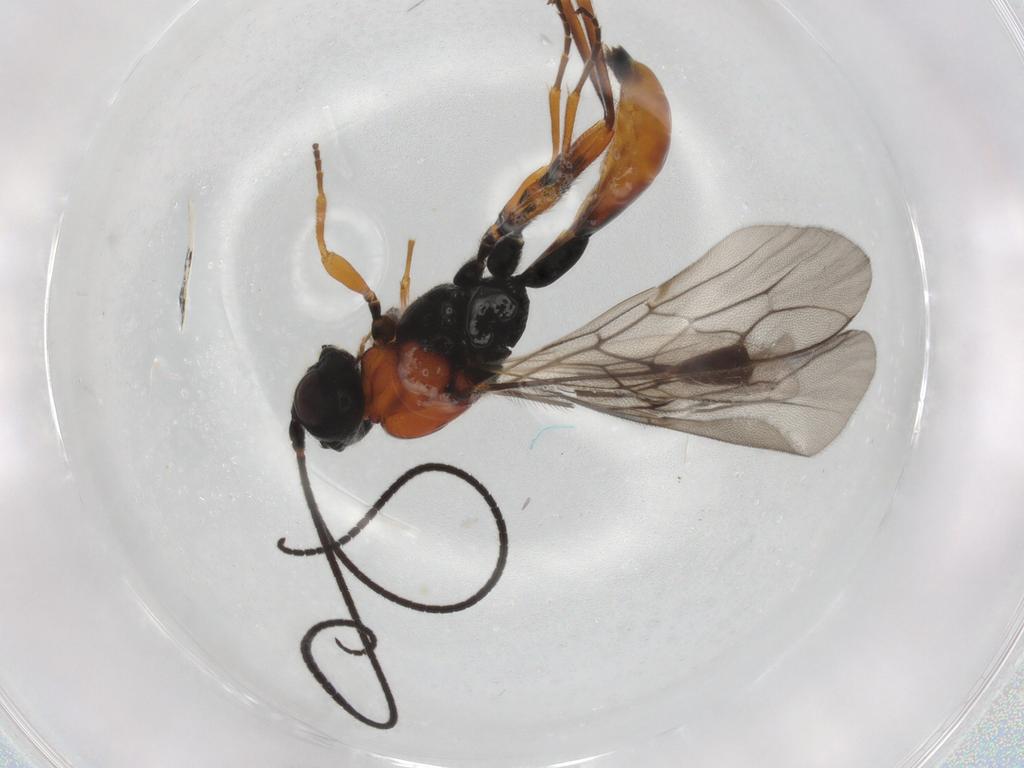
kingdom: Animalia
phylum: Arthropoda
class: Insecta
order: Hymenoptera
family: Braconidae
